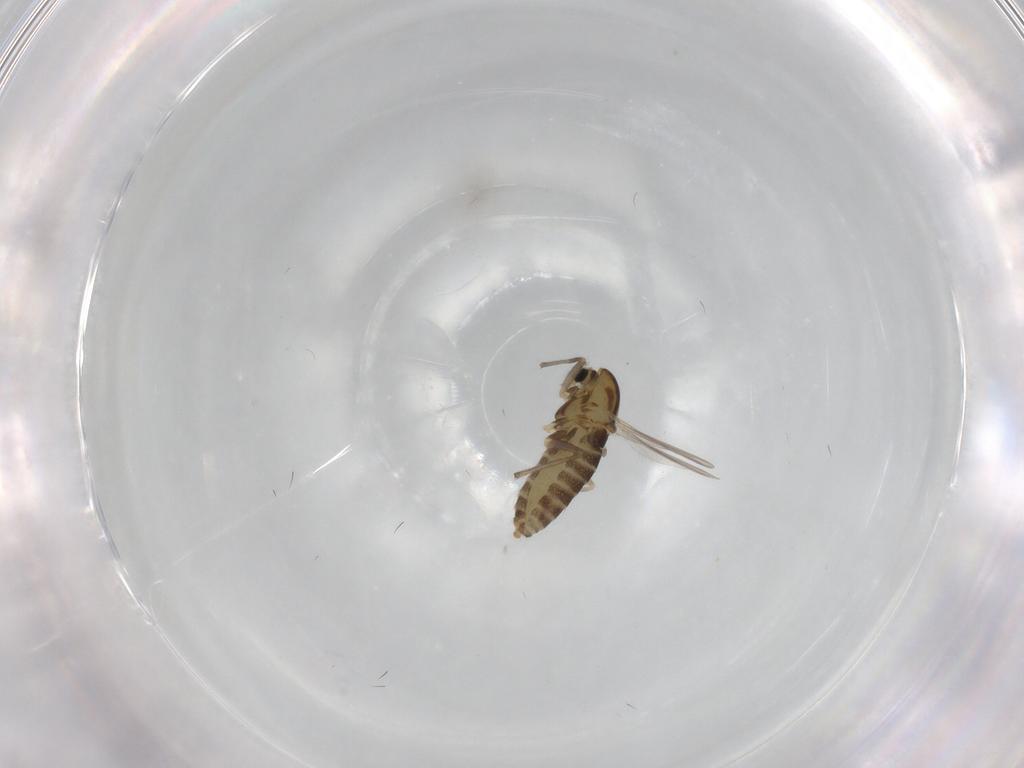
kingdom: Animalia
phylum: Arthropoda
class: Insecta
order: Diptera
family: Chironomidae
